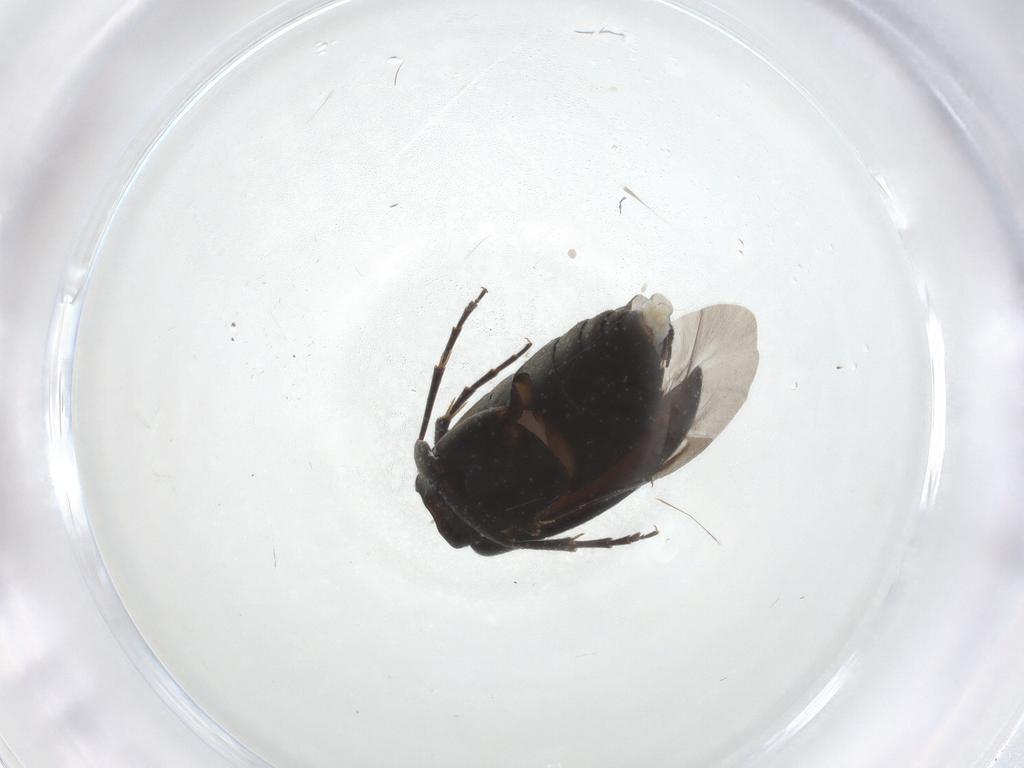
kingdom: Animalia
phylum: Arthropoda
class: Insecta
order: Coleoptera
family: Scraptiidae
